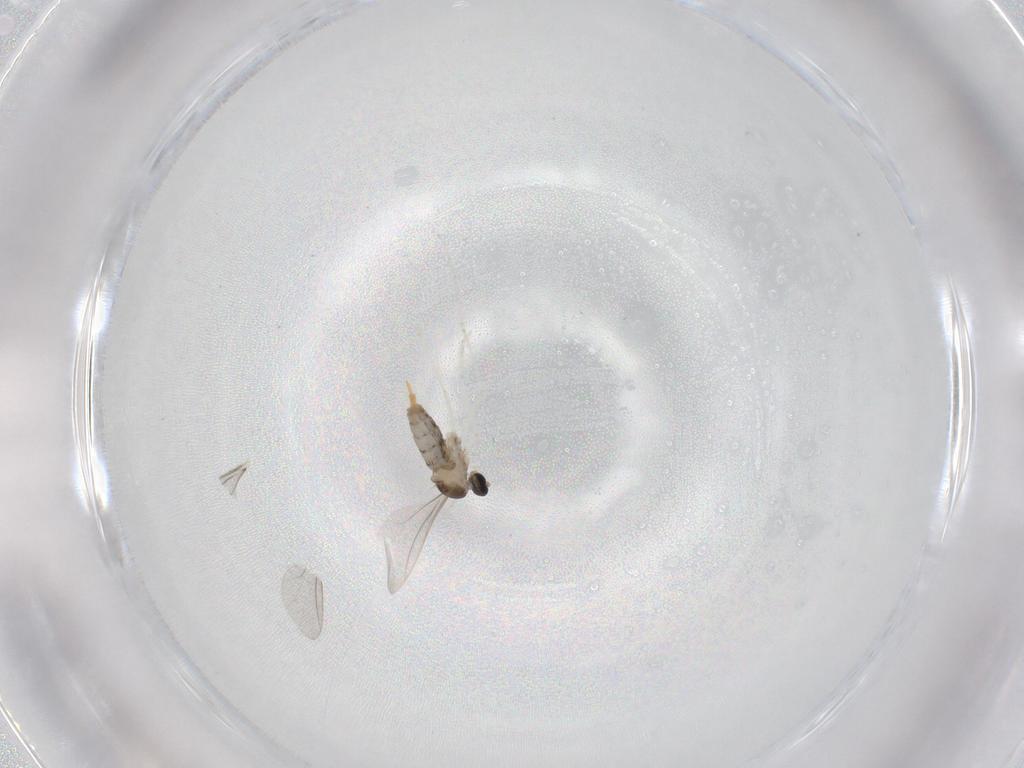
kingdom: Animalia
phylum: Arthropoda
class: Insecta
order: Diptera
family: Cecidomyiidae
